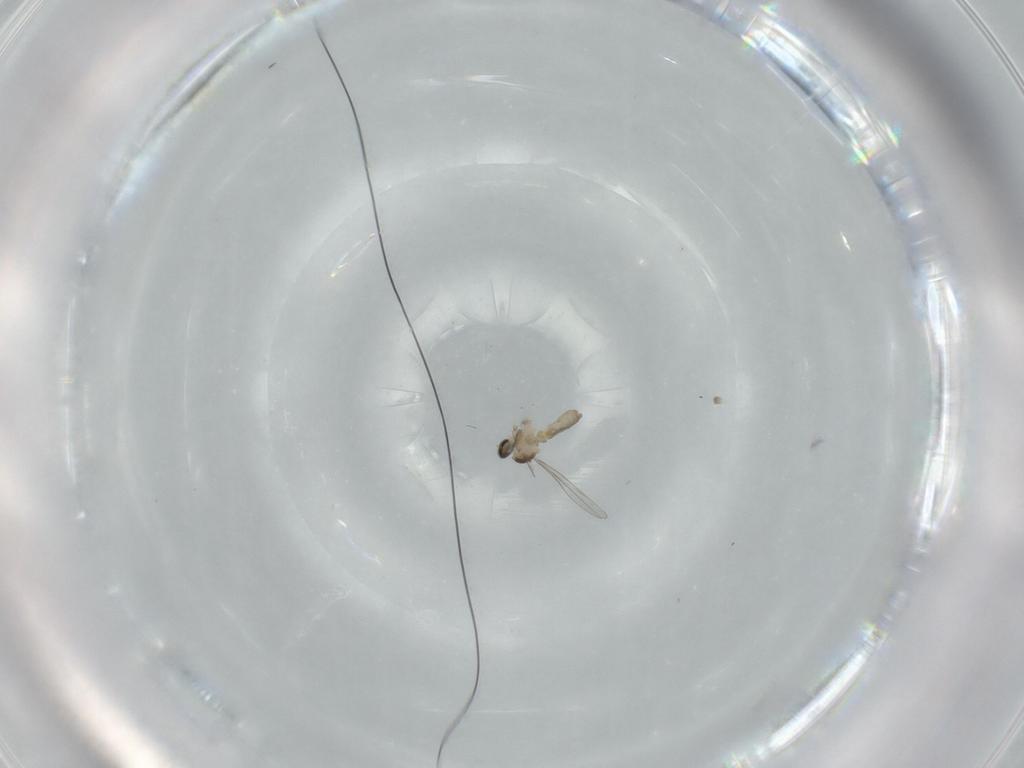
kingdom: Animalia
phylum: Arthropoda
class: Insecta
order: Diptera
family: Cecidomyiidae
